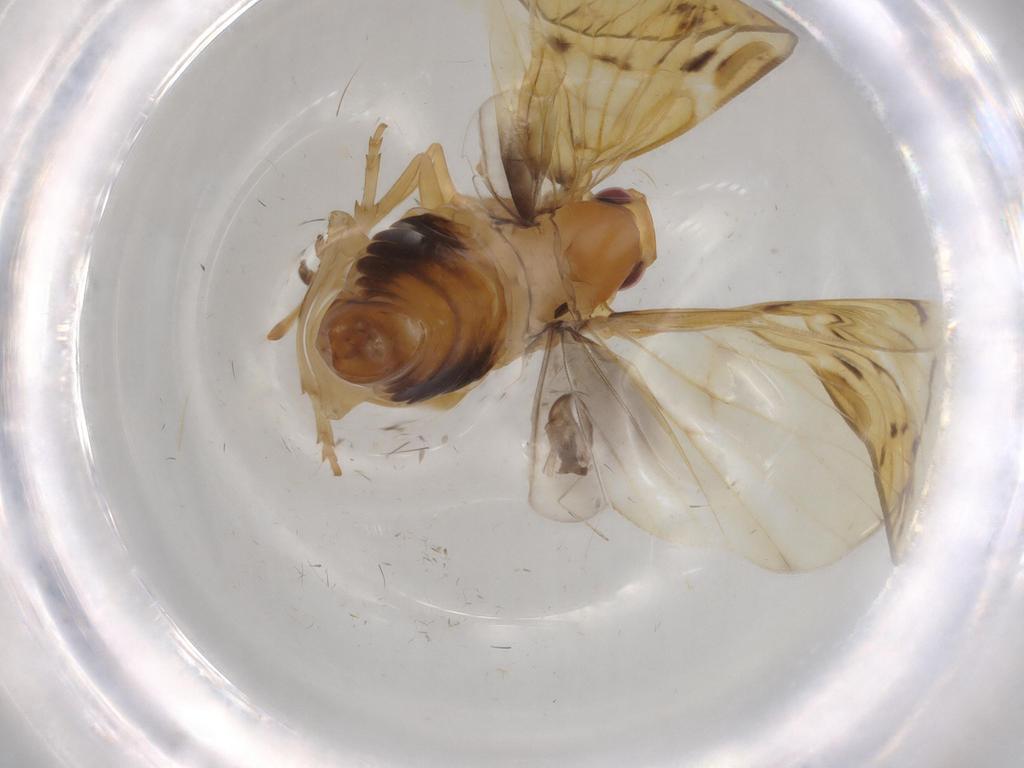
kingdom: Animalia
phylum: Arthropoda
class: Insecta
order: Hemiptera
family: Cixiidae
